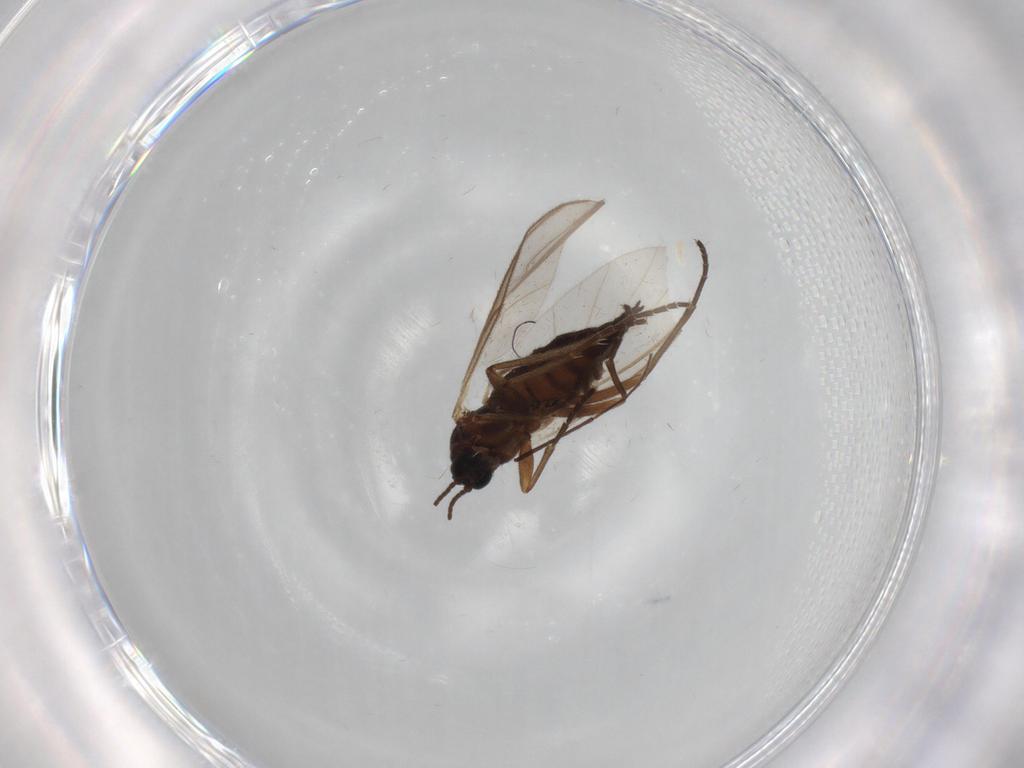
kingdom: Animalia
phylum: Arthropoda
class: Insecta
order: Diptera
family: Sciaridae
